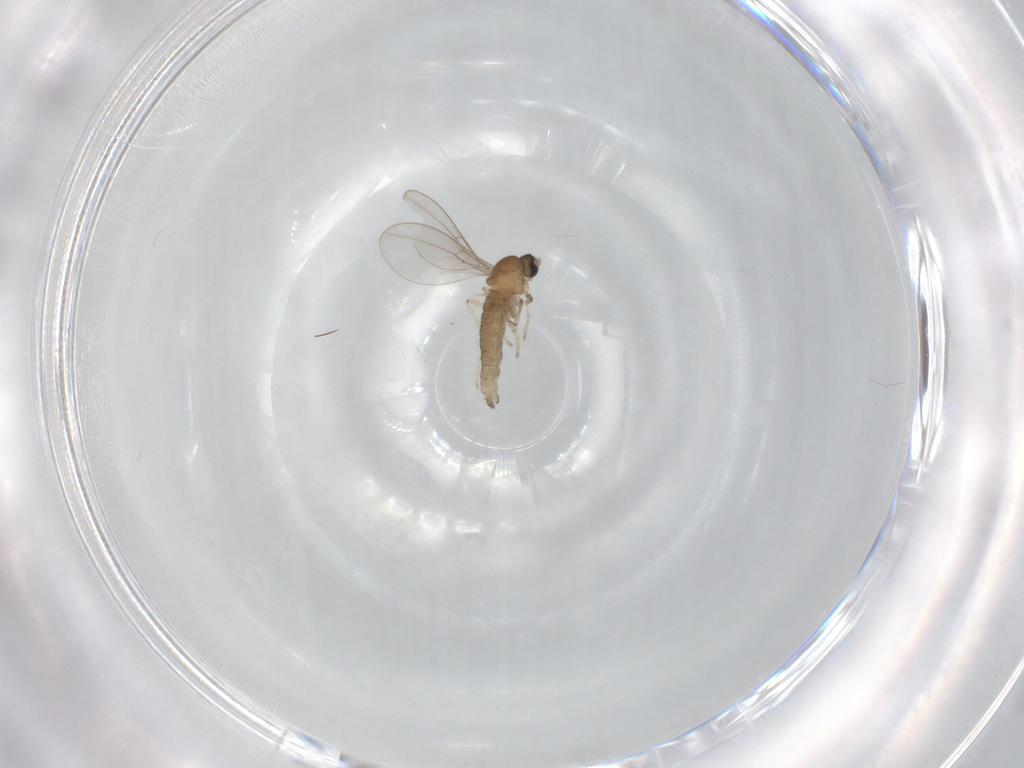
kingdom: Animalia
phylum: Arthropoda
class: Insecta
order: Diptera
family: Cecidomyiidae
